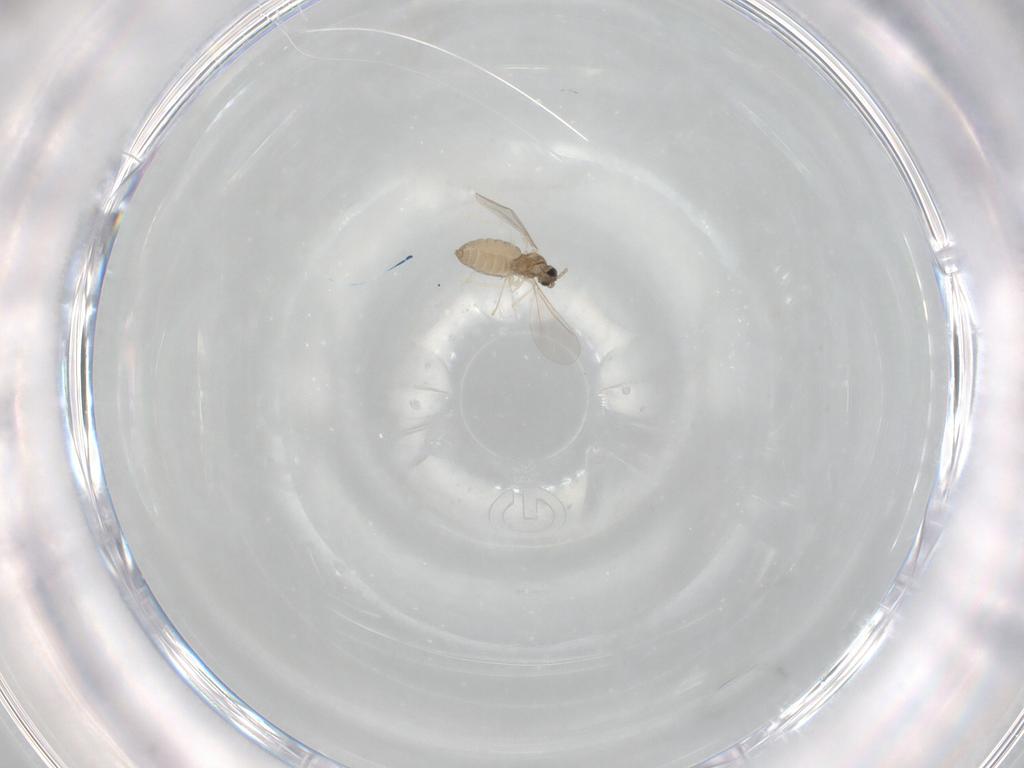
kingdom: Animalia
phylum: Arthropoda
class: Insecta
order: Diptera
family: Cecidomyiidae
